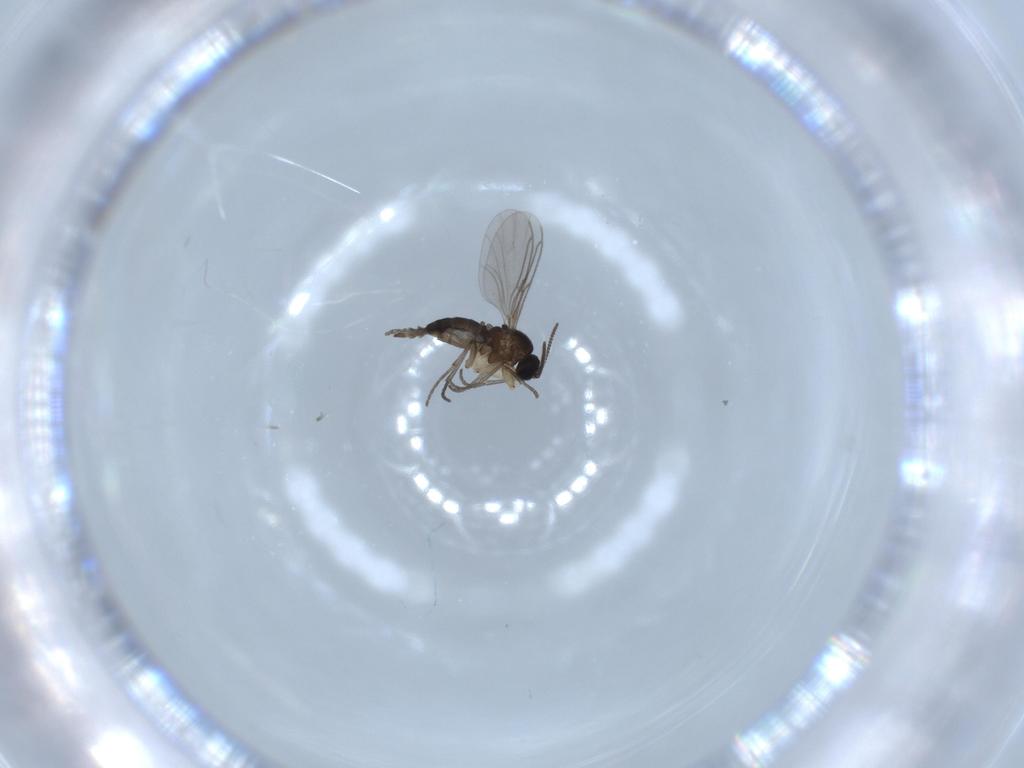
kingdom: Animalia
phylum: Arthropoda
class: Insecta
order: Diptera
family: Sciaridae
